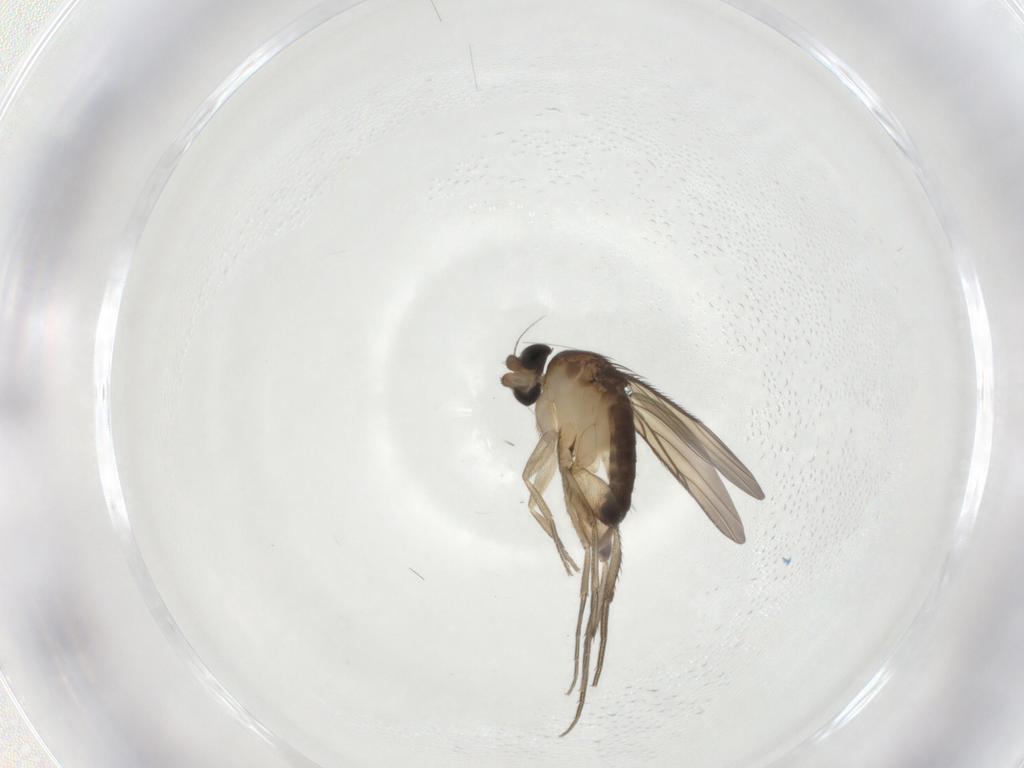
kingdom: Animalia
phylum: Arthropoda
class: Insecta
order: Diptera
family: Phoridae
